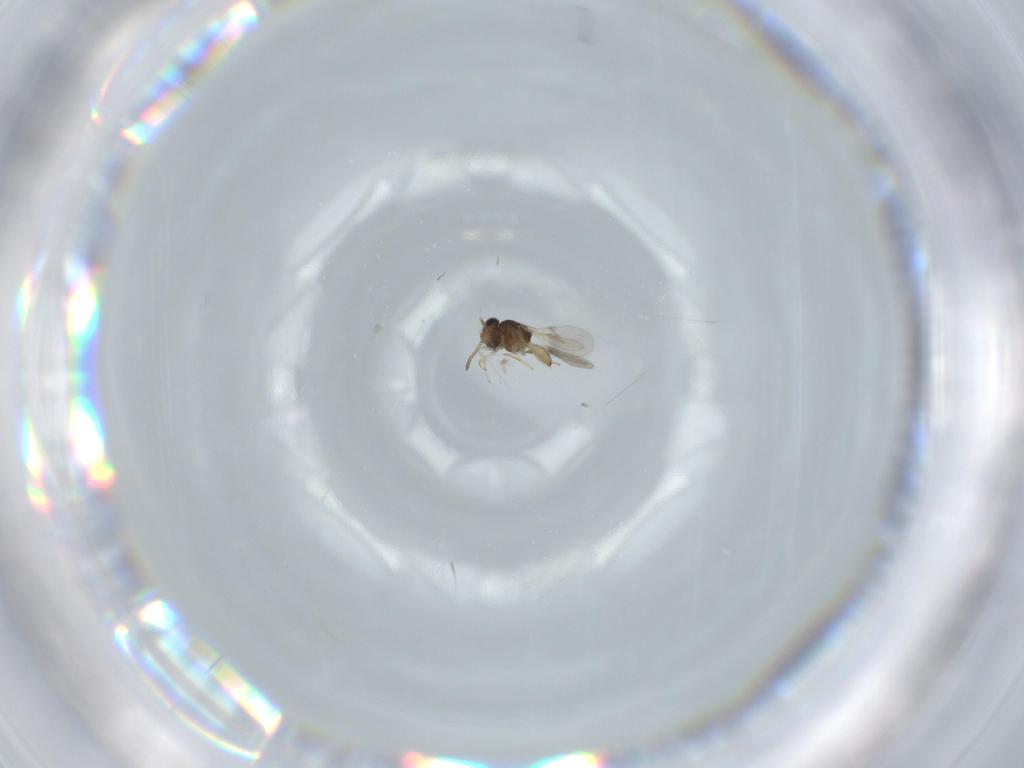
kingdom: Animalia
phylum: Arthropoda
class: Insecta
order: Hymenoptera
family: Scelionidae
